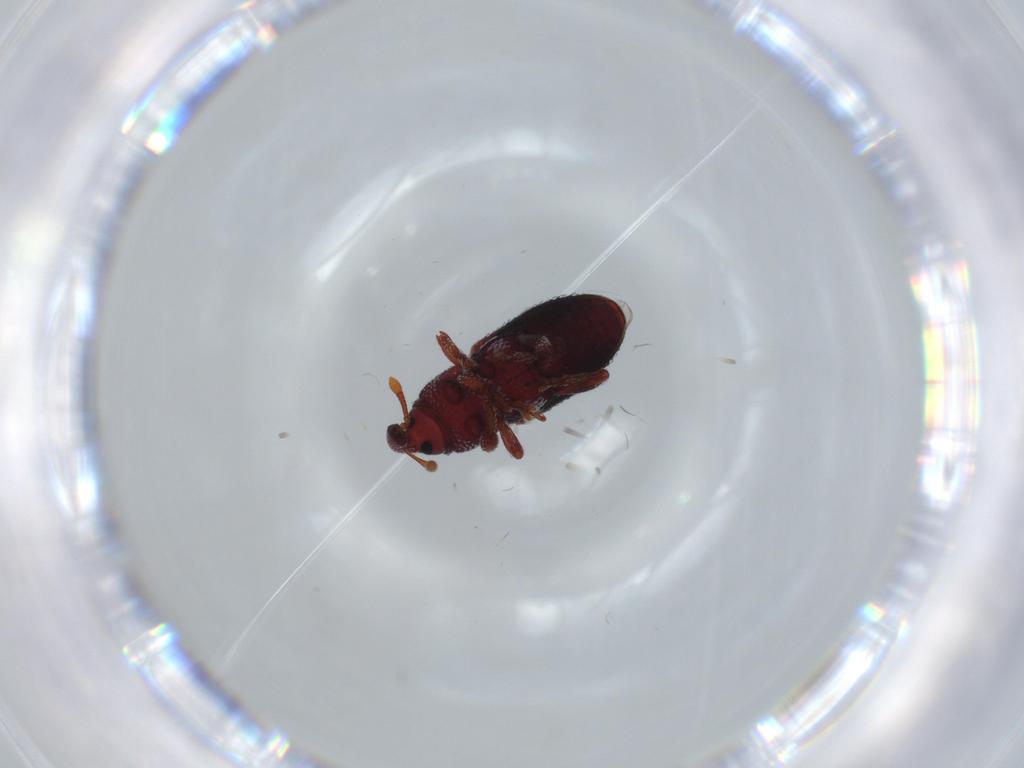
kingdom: Animalia
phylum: Arthropoda
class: Insecta
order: Coleoptera
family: Curculionidae
